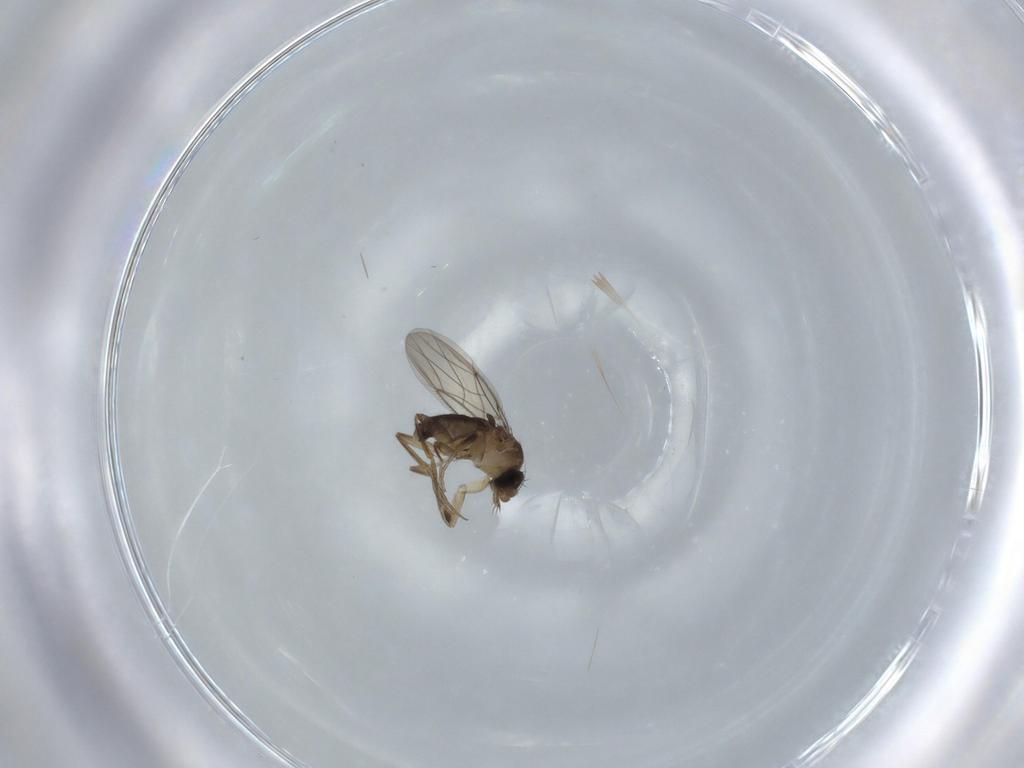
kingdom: Animalia
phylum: Arthropoda
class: Insecta
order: Diptera
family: Phoridae
